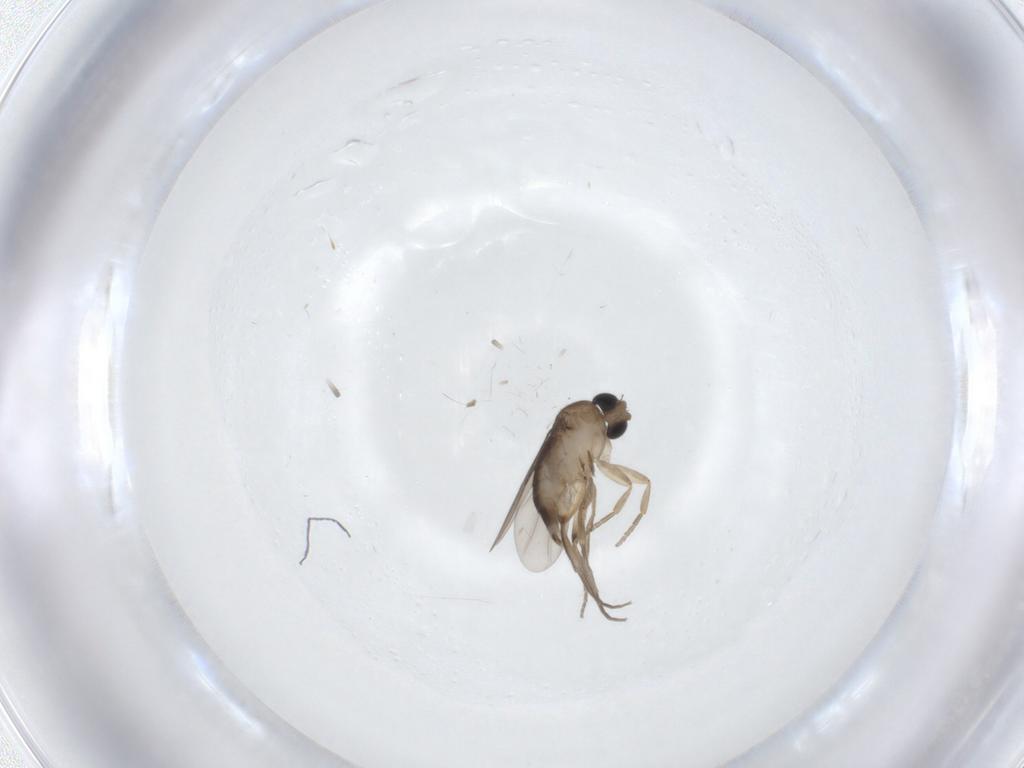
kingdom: Animalia
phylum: Arthropoda
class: Insecta
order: Diptera
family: Phoridae
